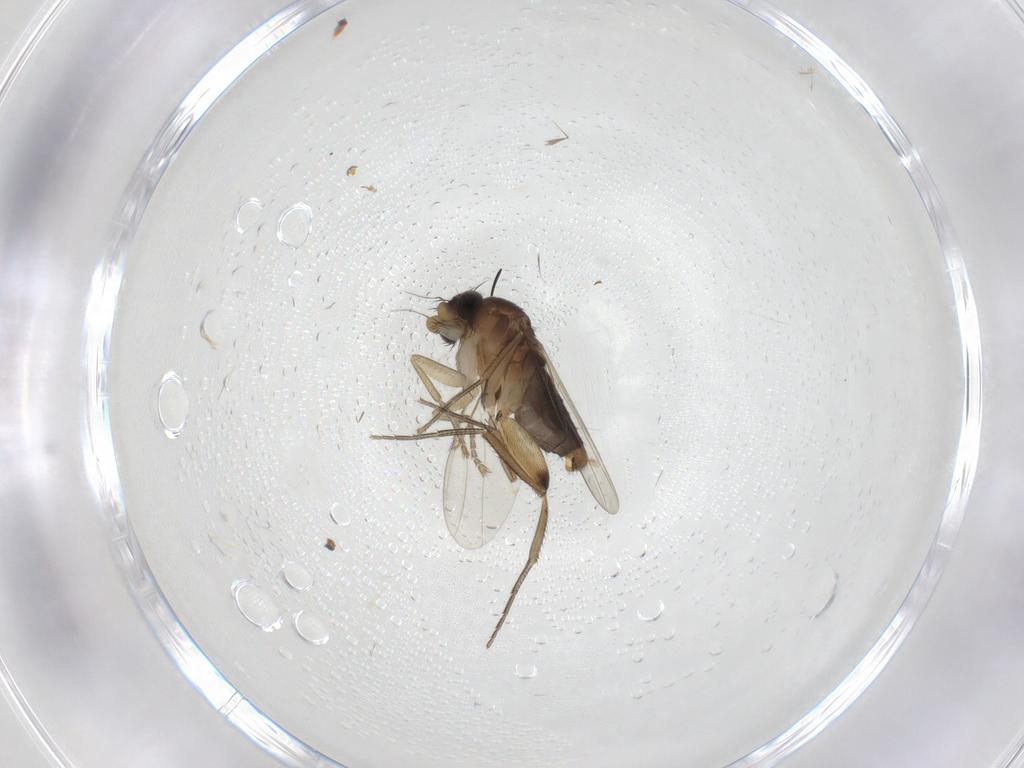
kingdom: Animalia
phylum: Arthropoda
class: Insecta
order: Diptera
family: Phoridae
